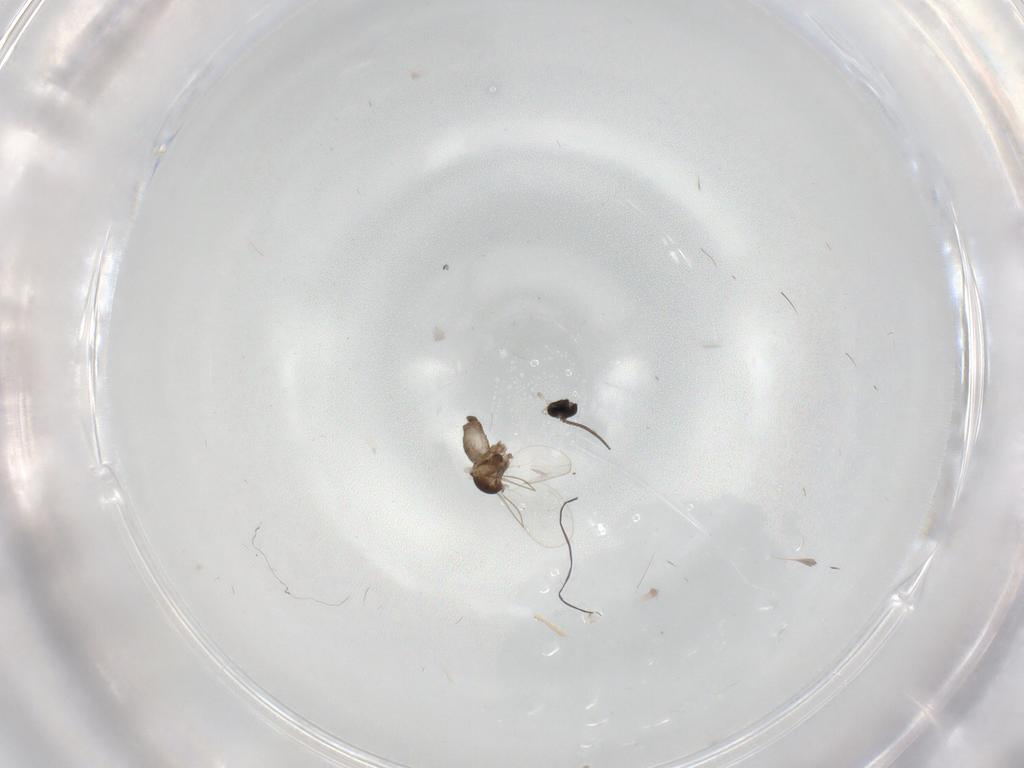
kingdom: Animalia
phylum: Arthropoda
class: Insecta
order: Diptera
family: Cecidomyiidae
